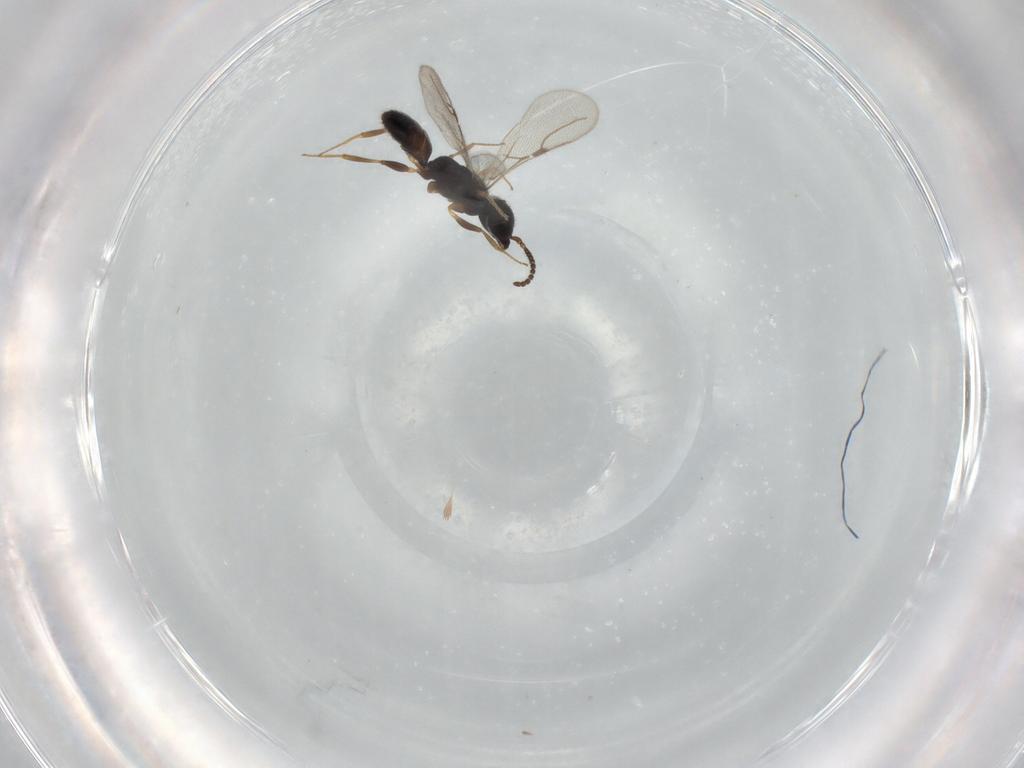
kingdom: Animalia
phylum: Arthropoda
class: Insecta
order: Hymenoptera
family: Bethylidae
